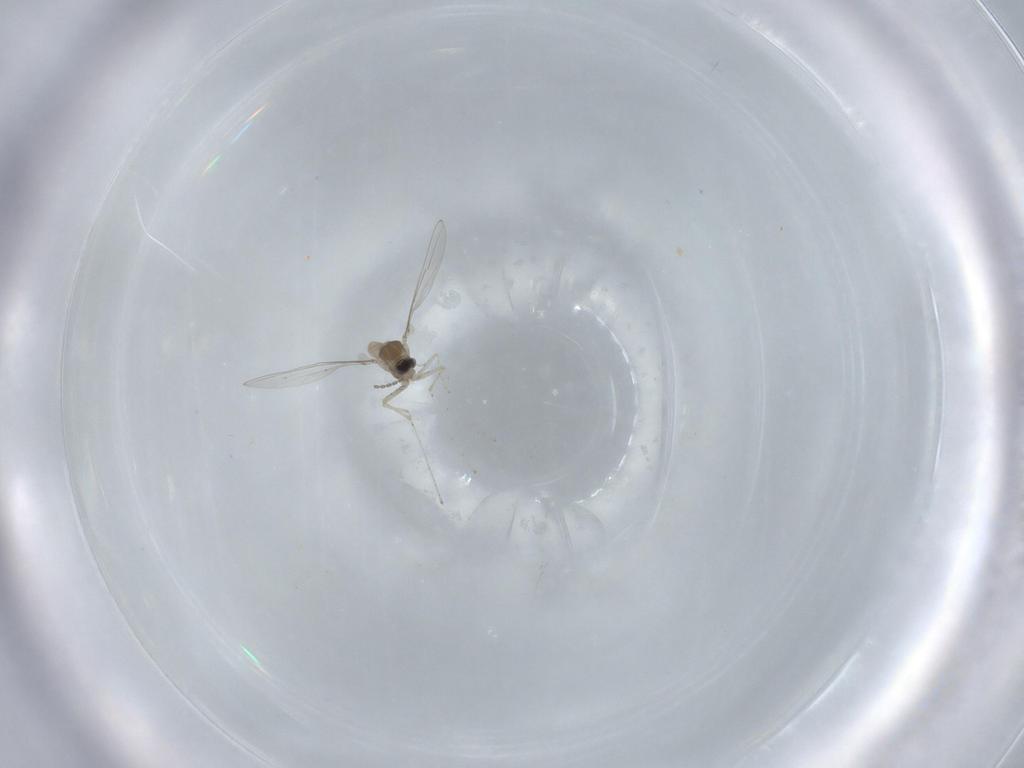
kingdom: Animalia
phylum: Arthropoda
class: Insecta
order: Diptera
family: Cecidomyiidae
